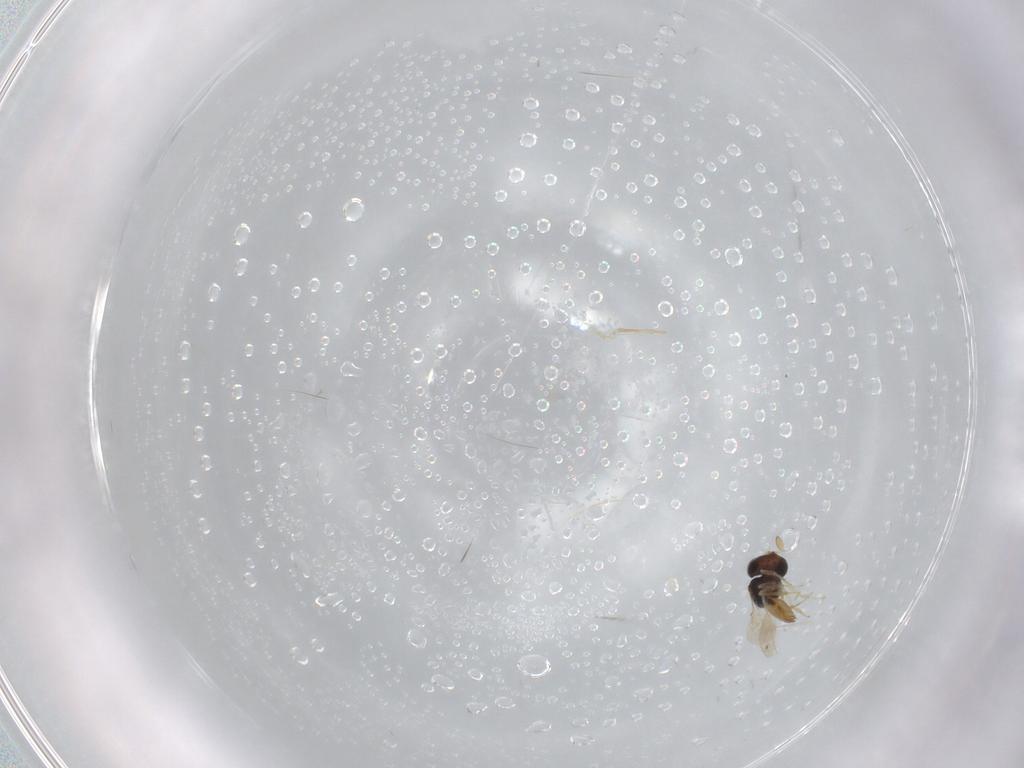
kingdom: Animalia
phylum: Arthropoda
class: Insecta
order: Hymenoptera
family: Scelionidae
